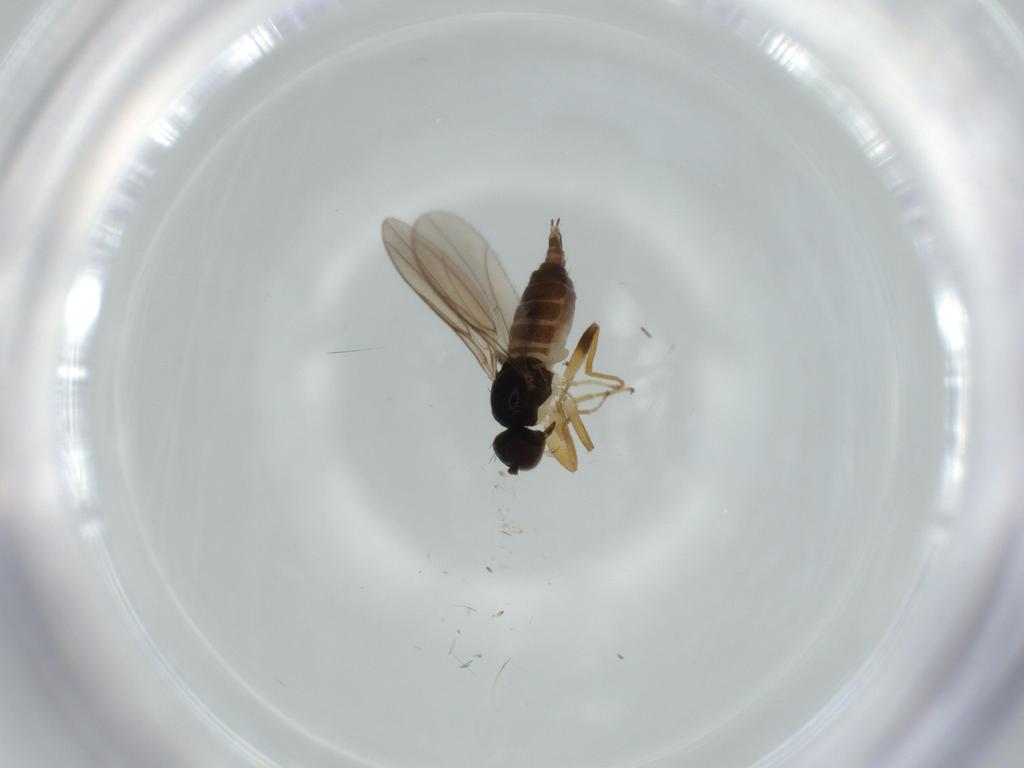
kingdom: Animalia
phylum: Arthropoda
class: Insecta
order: Diptera
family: Hybotidae
